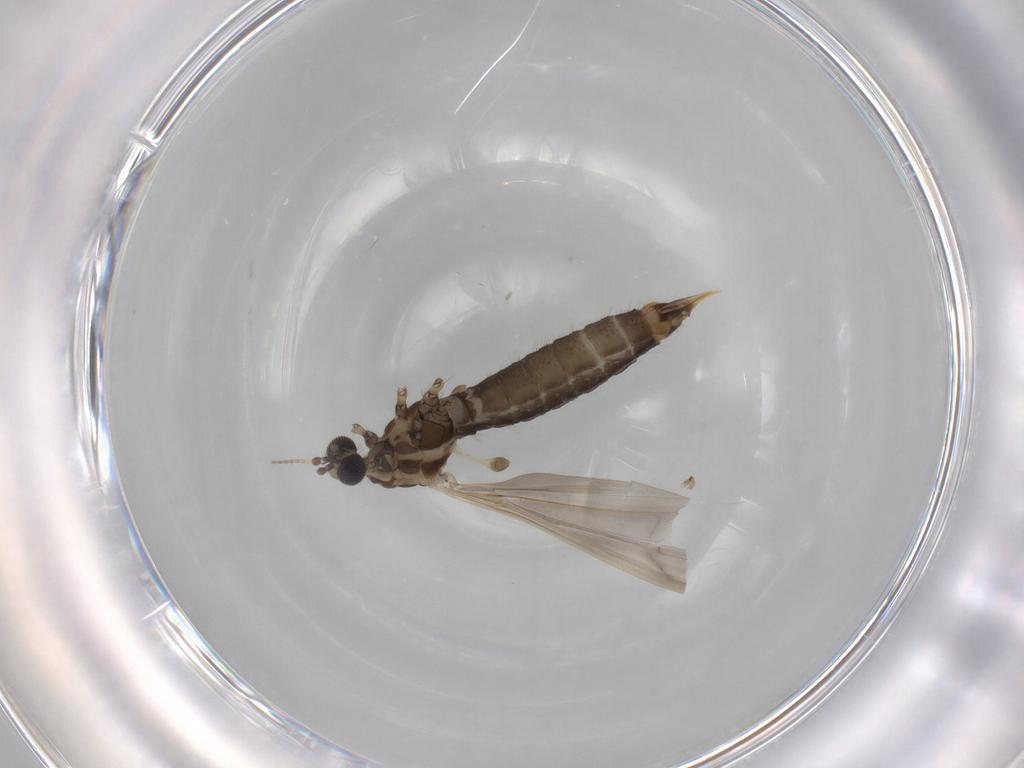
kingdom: Animalia
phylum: Arthropoda
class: Insecta
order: Diptera
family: Limoniidae
